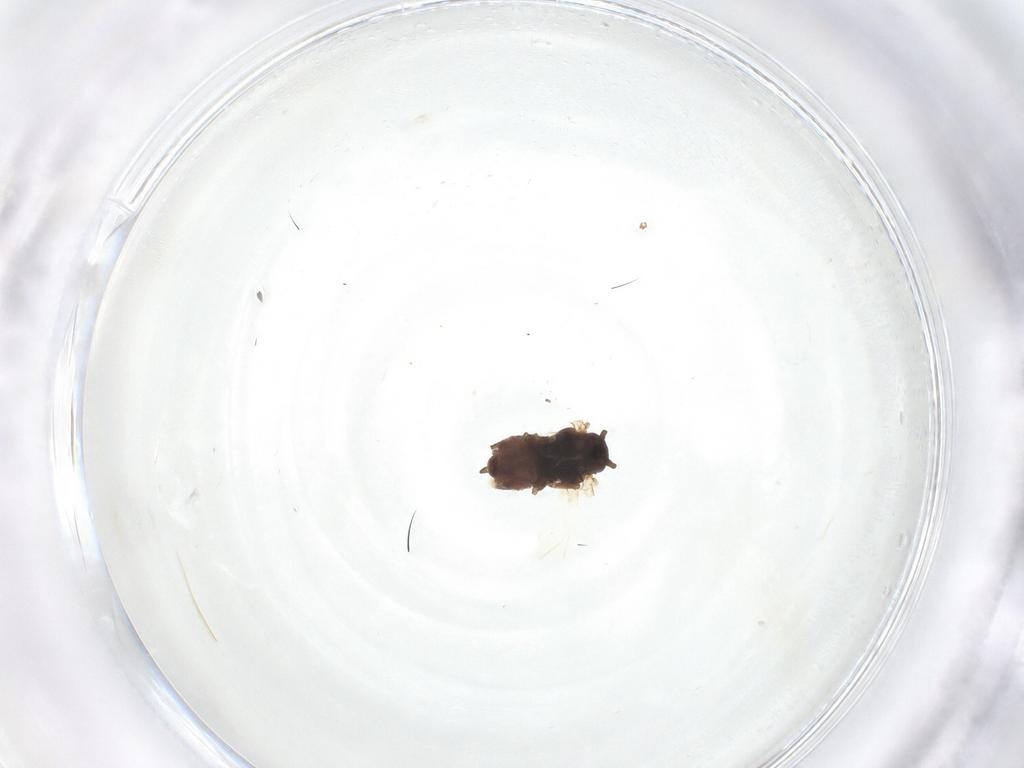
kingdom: Animalia
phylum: Arthropoda
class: Insecta
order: Hemiptera
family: Aphididae
